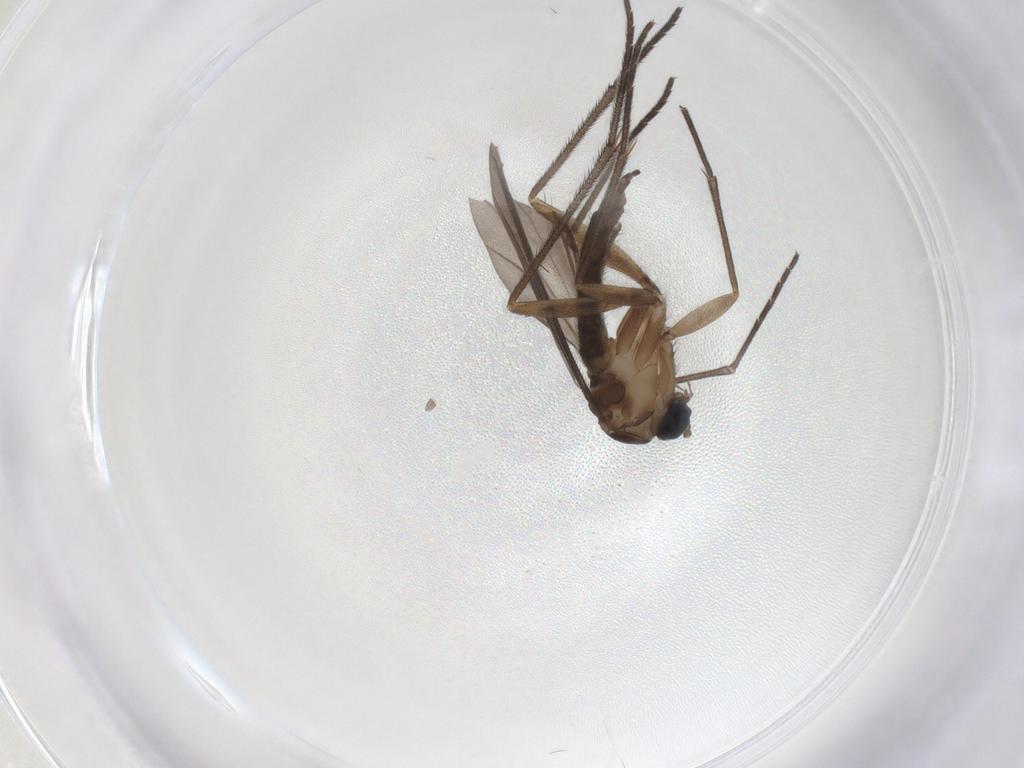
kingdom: Animalia
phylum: Arthropoda
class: Insecta
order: Diptera
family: Sciaridae
